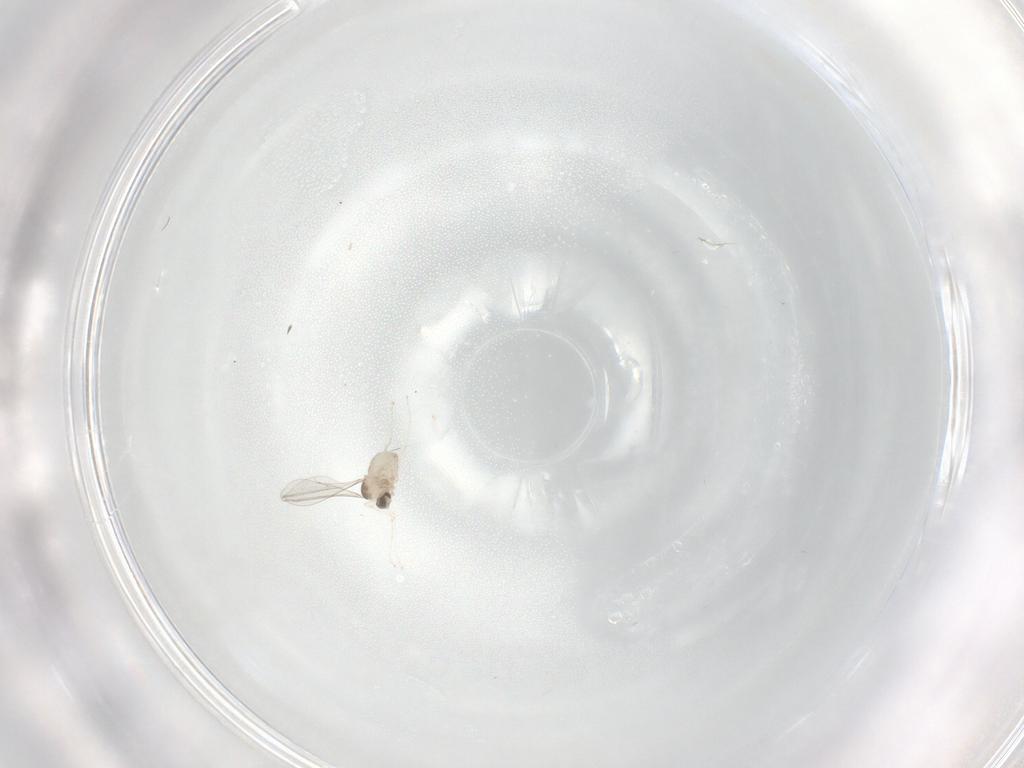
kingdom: Animalia
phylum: Arthropoda
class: Insecta
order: Diptera
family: Cecidomyiidae
